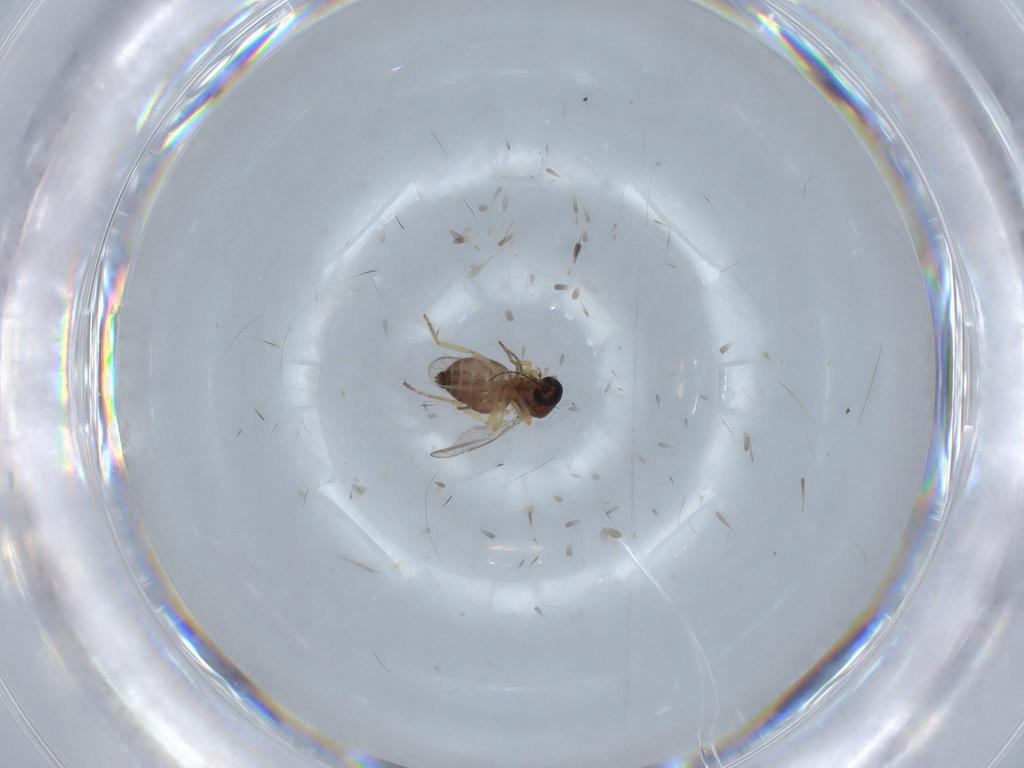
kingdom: Animalia
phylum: Arthropoda
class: Insecta
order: Diptera
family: Ceratopogonidae
